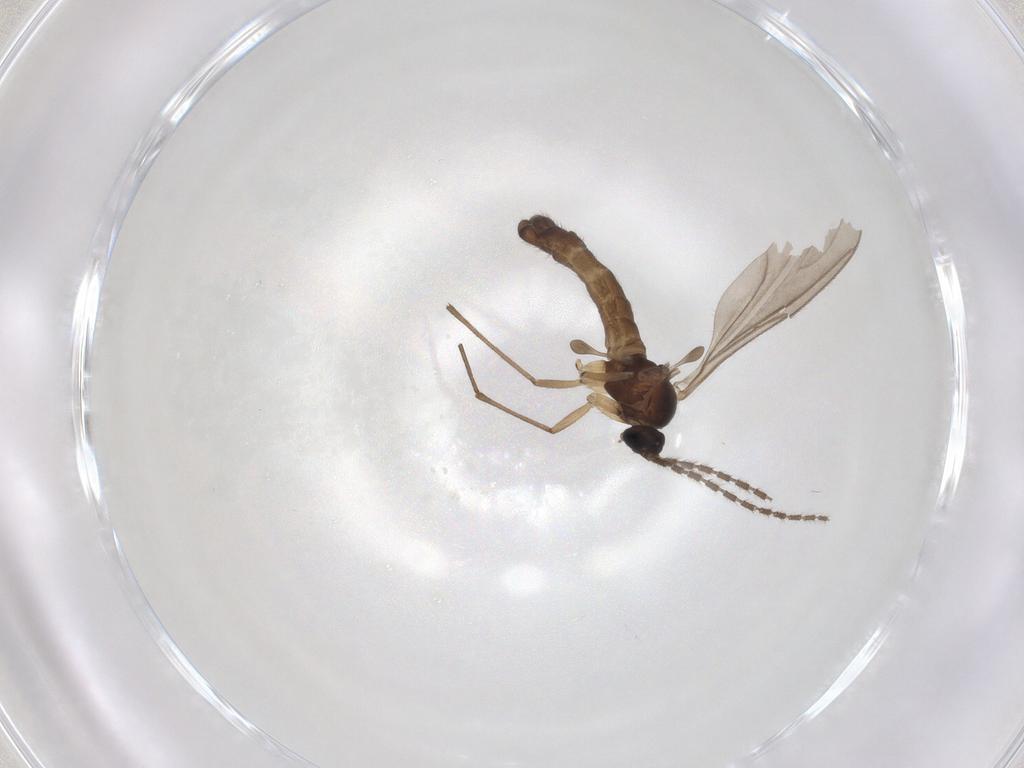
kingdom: Animalia
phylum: Arthropoda
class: Insecta
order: Diptera
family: Sciaridae
